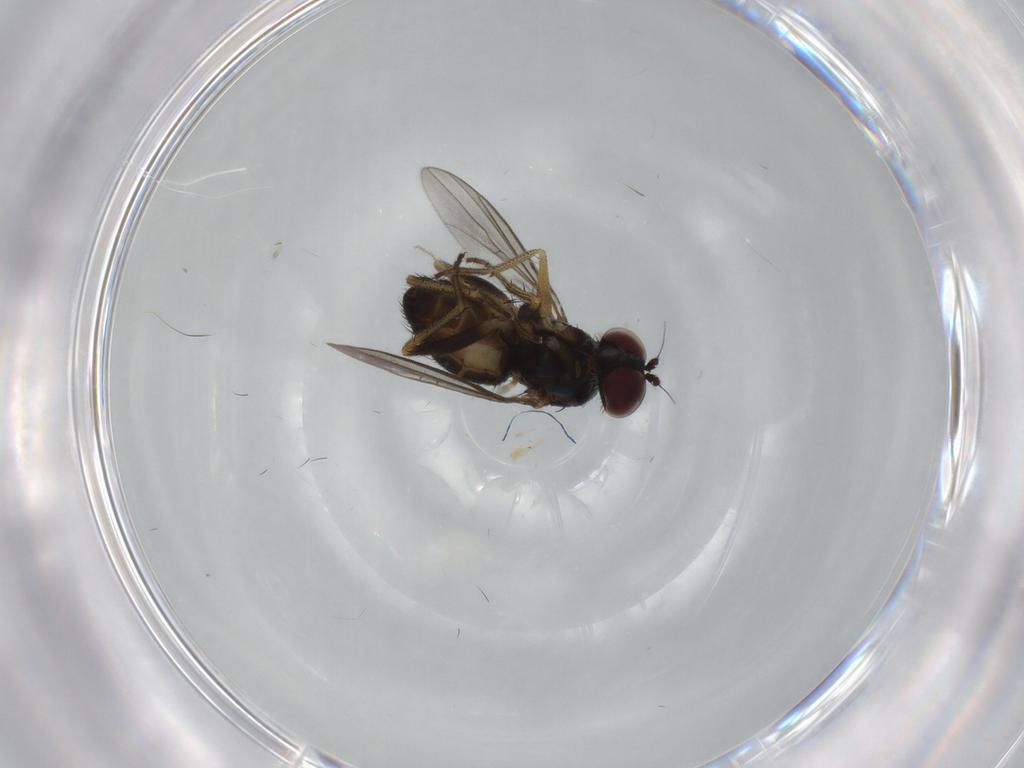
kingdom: Animalia
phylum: Arthropoda
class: Insecta
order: Diptera
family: Dolichopodidae
